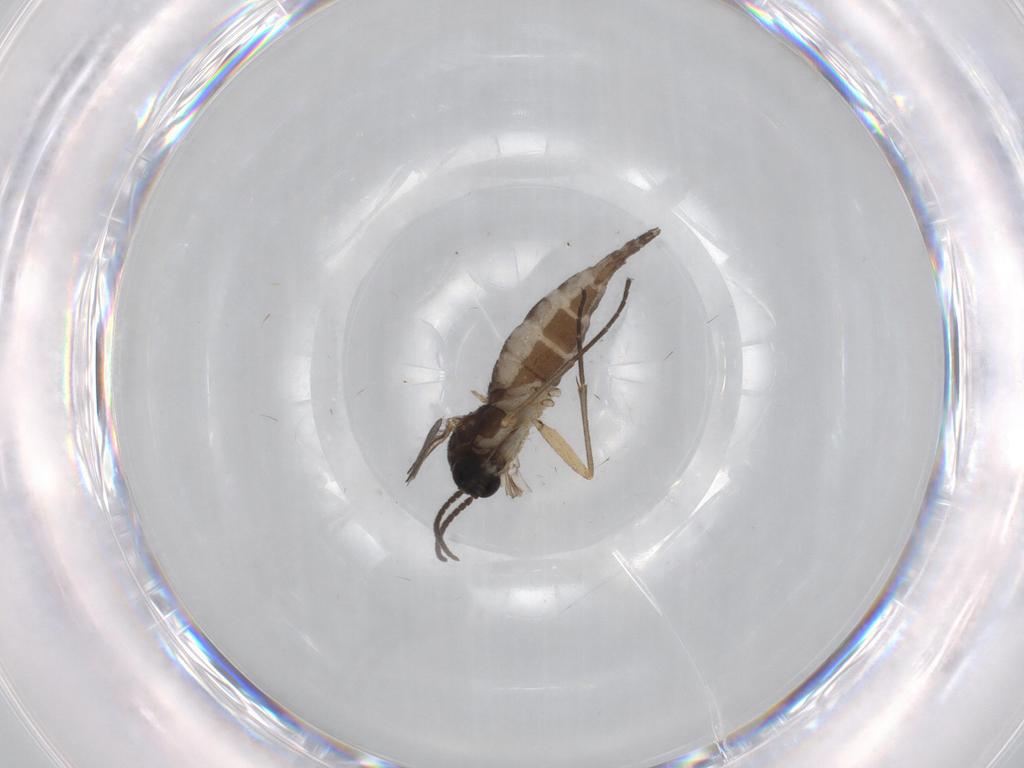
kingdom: Animalia
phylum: Arthropoda
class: Insecta
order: Diptera
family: Sciaridae
